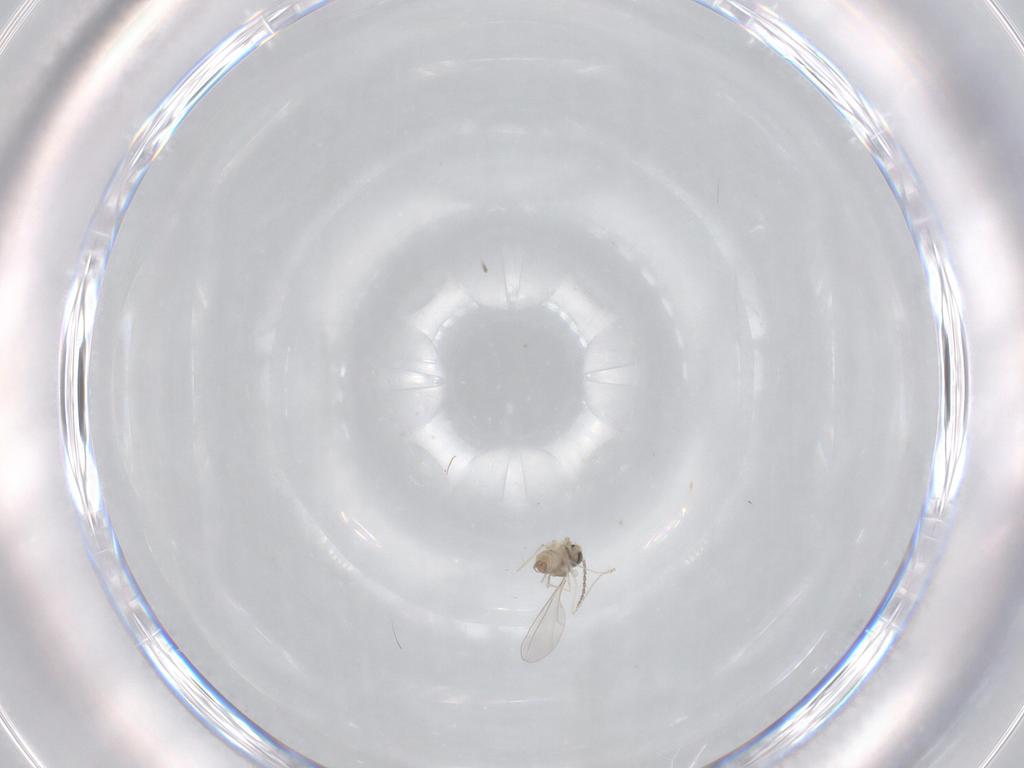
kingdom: Animalia
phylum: Arthropoda
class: Insecta
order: Diptera
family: Cecidomyiidae
